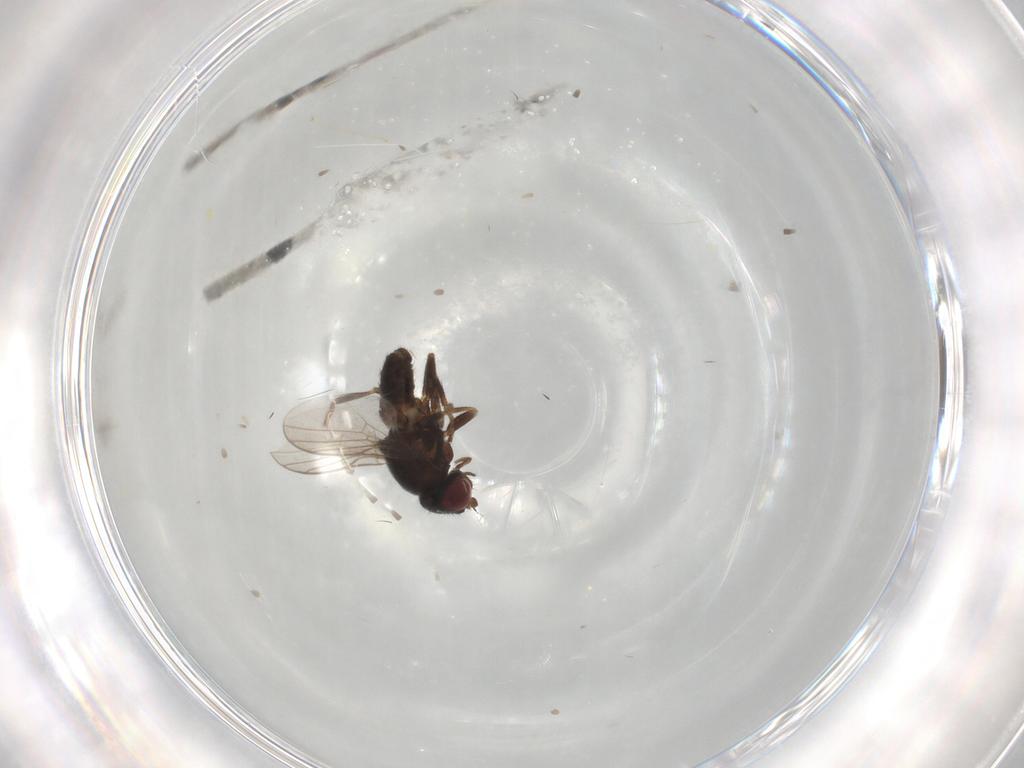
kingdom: Animalia
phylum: Arthropoda
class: Insecta
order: Diptera
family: Chloropidae
